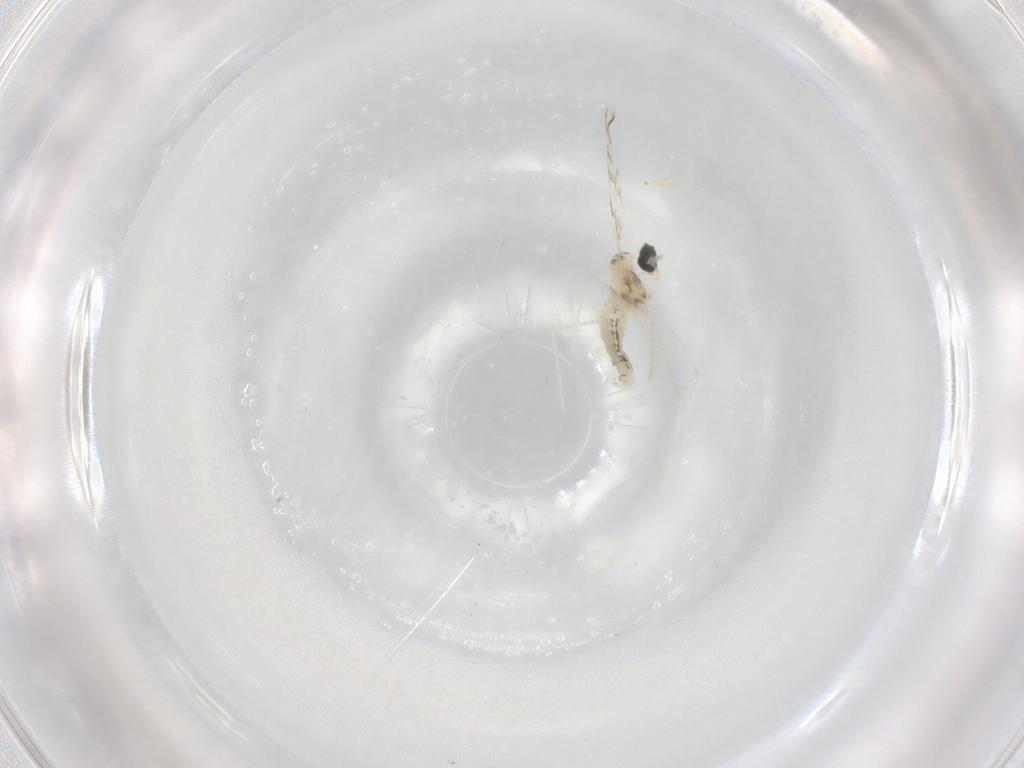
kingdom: Animalia
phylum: Arthropoda
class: Insecta
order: Diptera
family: Cecidomyiidae
